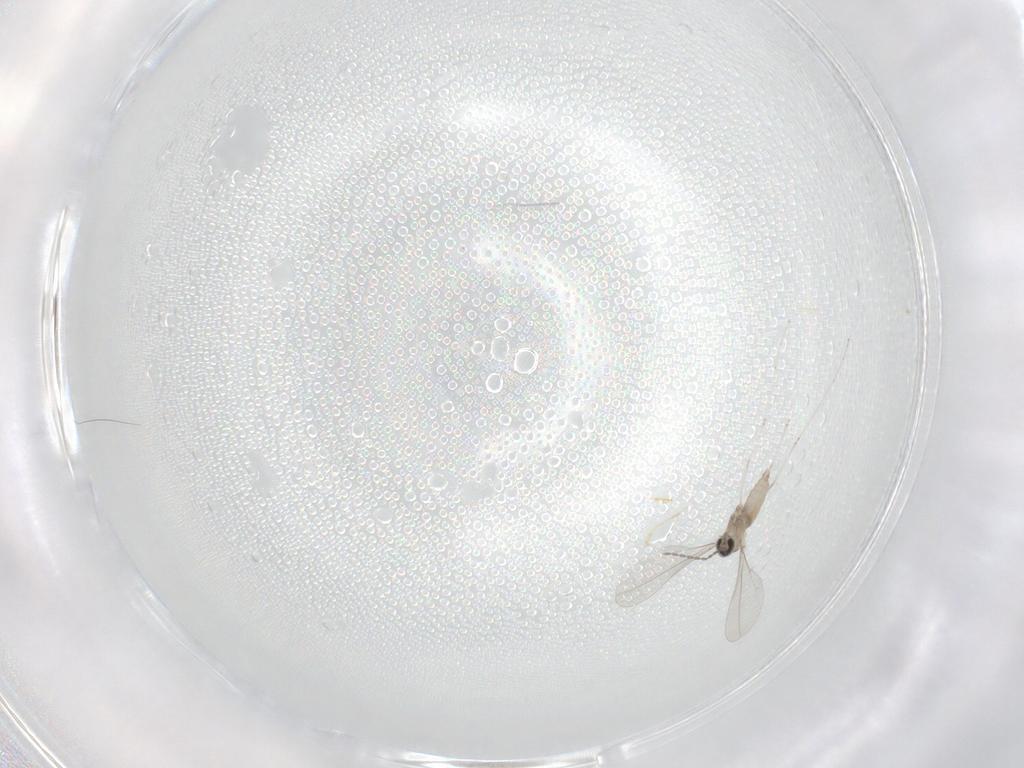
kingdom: Animalia
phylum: Arthropoda
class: Insecta
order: Diptera
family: Cecidomyiidae
